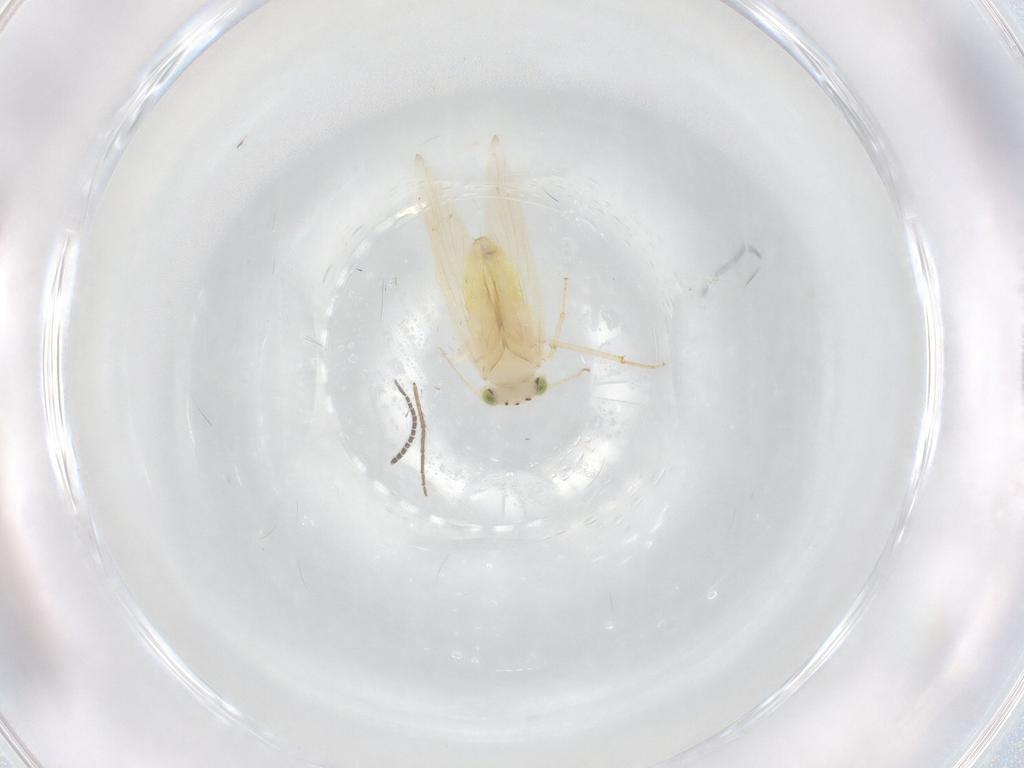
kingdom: Animalia
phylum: Arthropoda
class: Insecta
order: Psocodea
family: Lepidopsocidae
